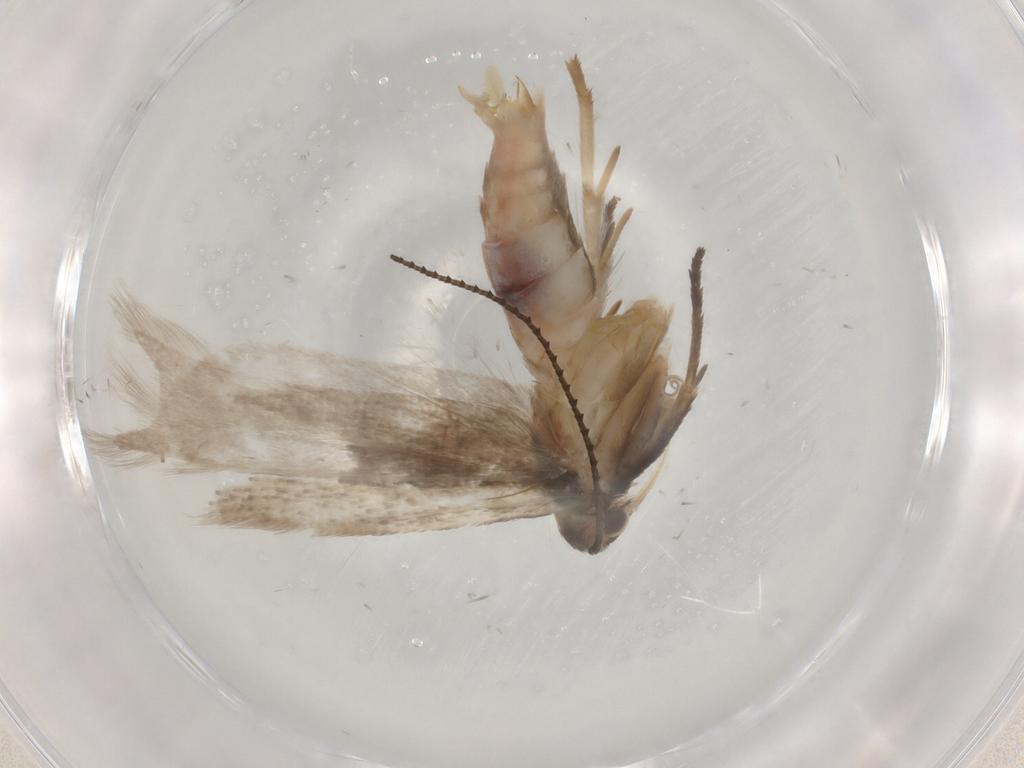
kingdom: Animalia
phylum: Arthropoda
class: Insecta
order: Lepidoptera
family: Gelechiidae
